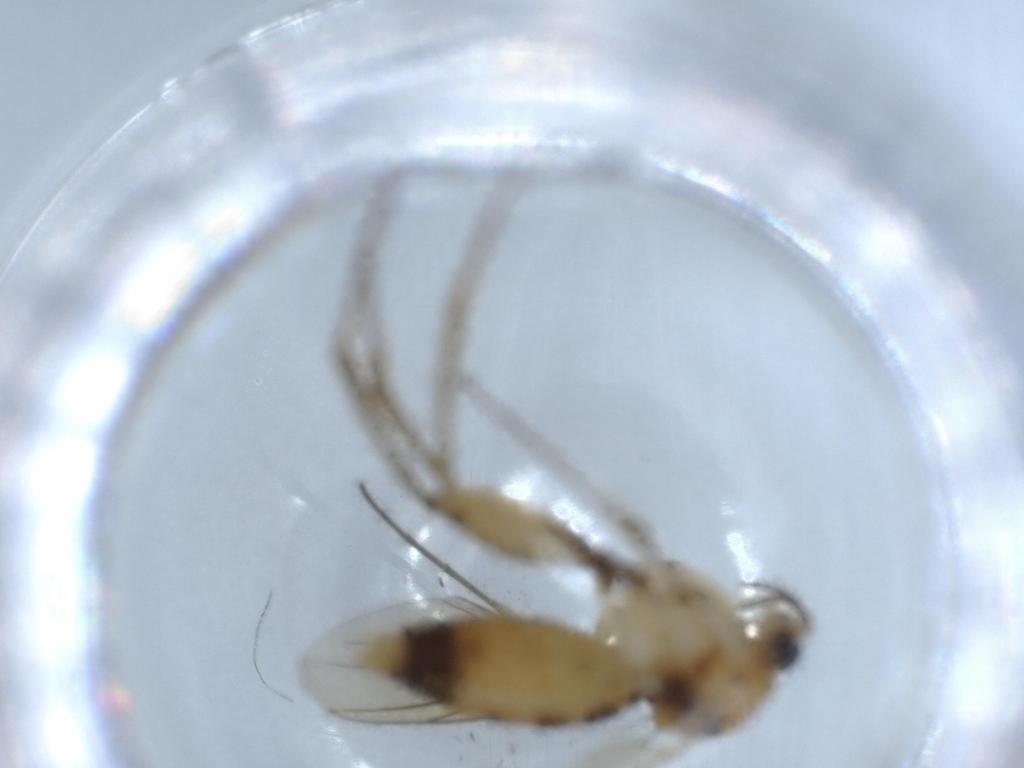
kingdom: Animalia
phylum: Arthropoda
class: Insecta
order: Diptera
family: Mycetophilidae
